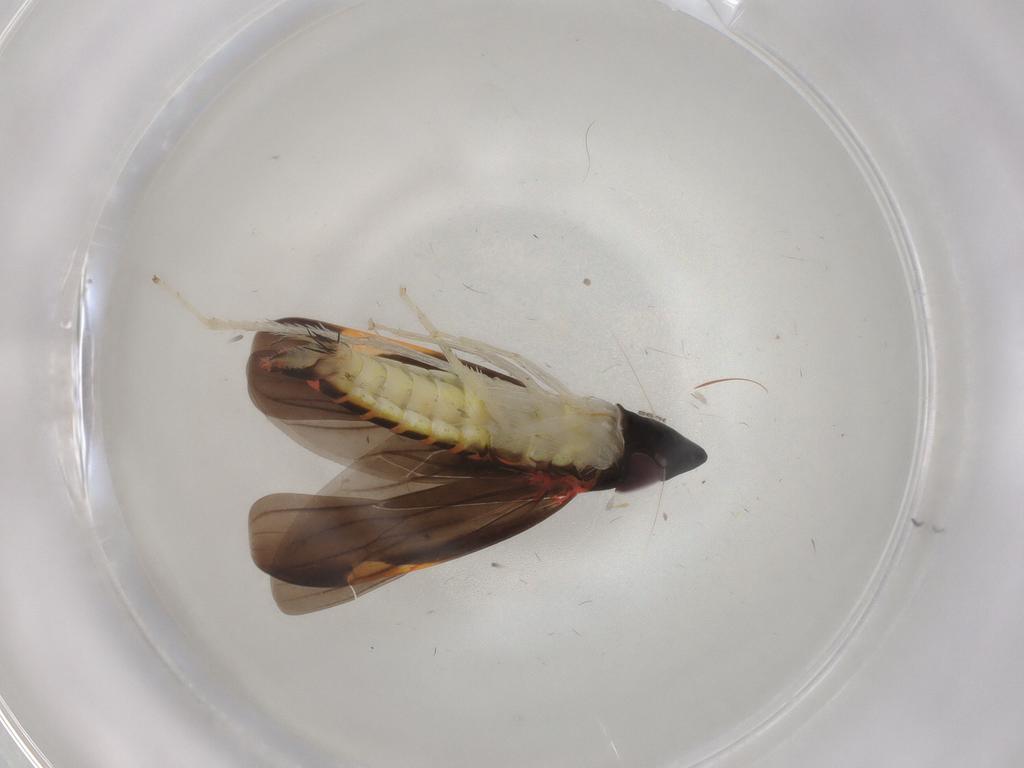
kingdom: Animalia
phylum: Arthropoda
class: Insecta
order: Hemiptera
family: Cicadellidae
